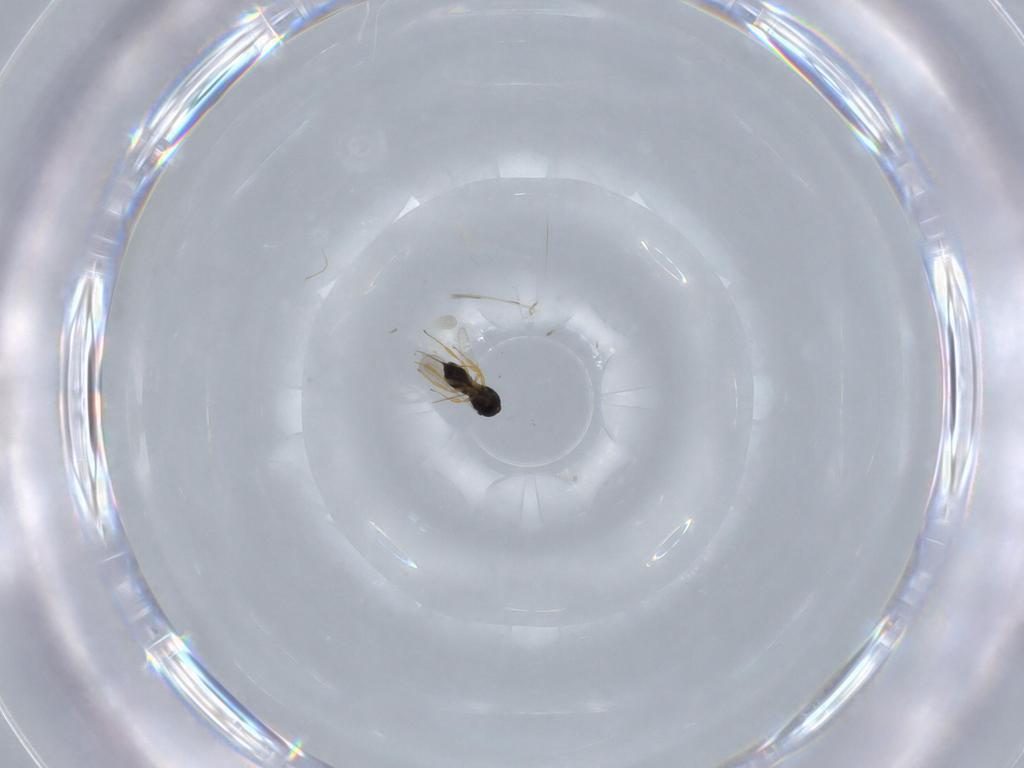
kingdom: Animalia
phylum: Arthropoda
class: Insecta
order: Hymenoptera
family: Scelionidae
